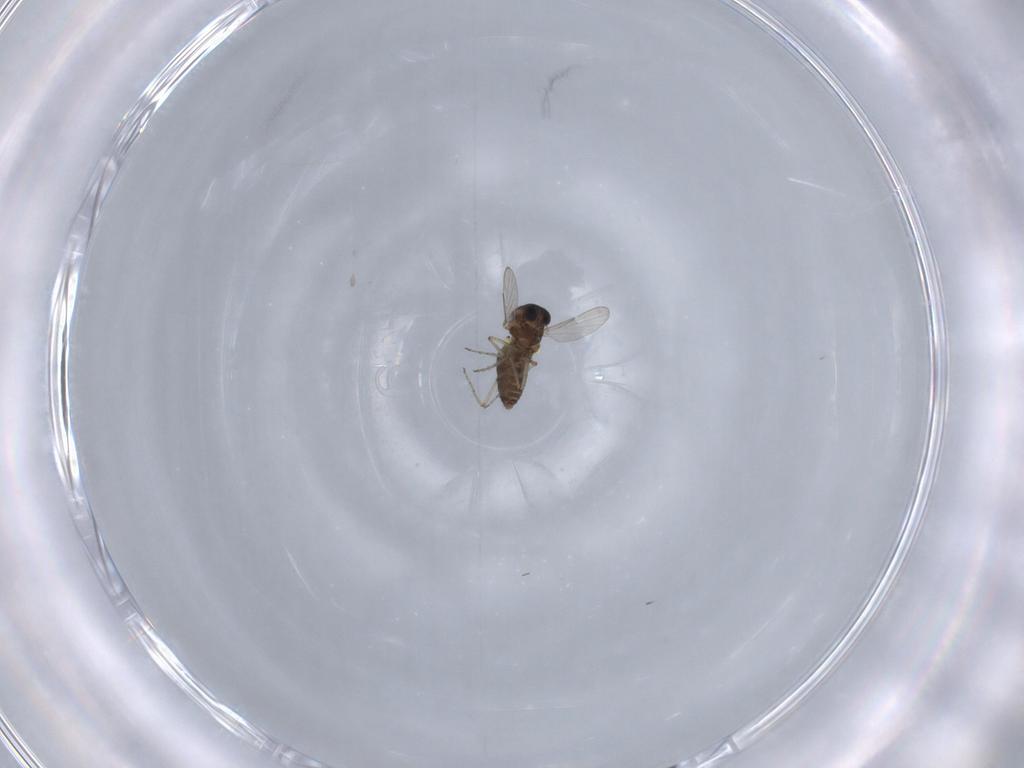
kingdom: Animalia
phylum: Arthropoda
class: Insecta
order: Diptera
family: Ceratopogonidae
